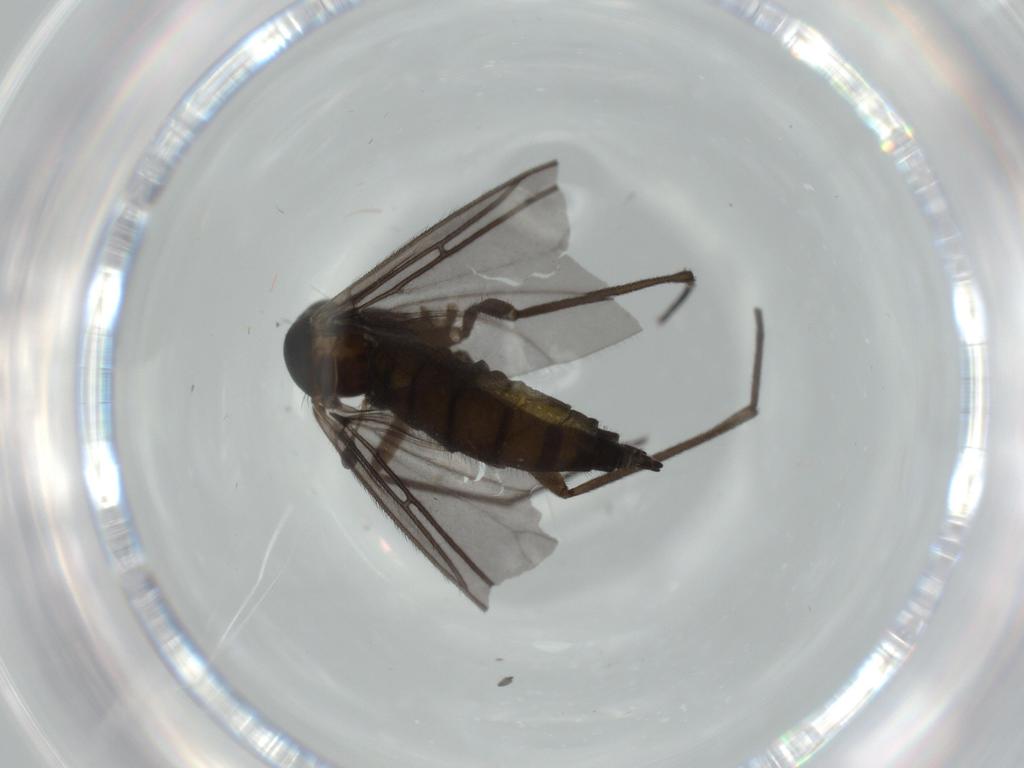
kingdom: Animalia
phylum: Arthropoda
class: Insecta
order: Diptera
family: Sciaridae
